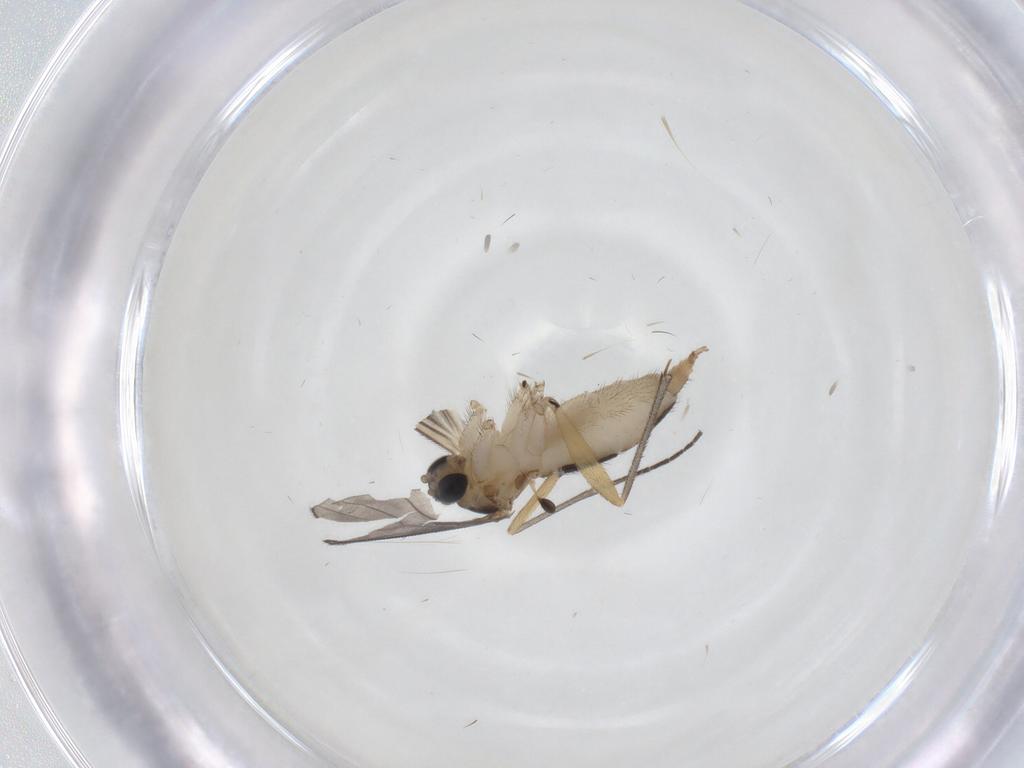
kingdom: Animalia
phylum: Arthropoda
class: Insecta
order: Diptera
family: Sciaridae
